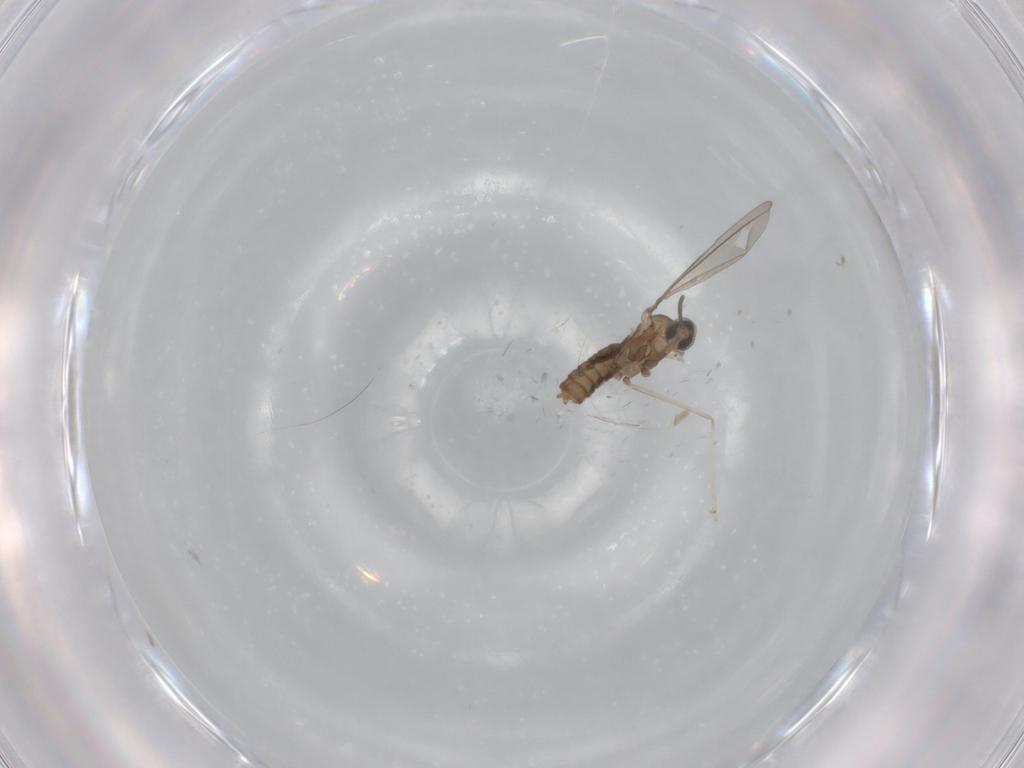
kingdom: Animalia
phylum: Arthropoda
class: Insecta
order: Diptera
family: Cecidomyiidae
